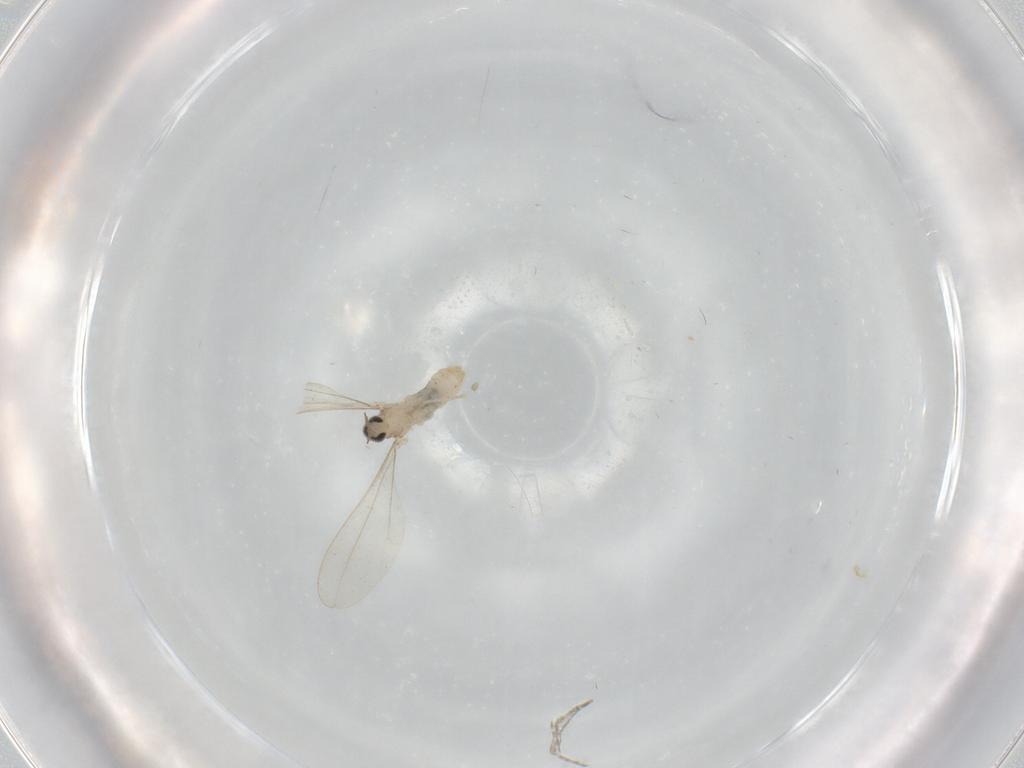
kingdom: Animalia
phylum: Arthropoda
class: Insecta
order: Diptera
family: Cecidomyiidae
